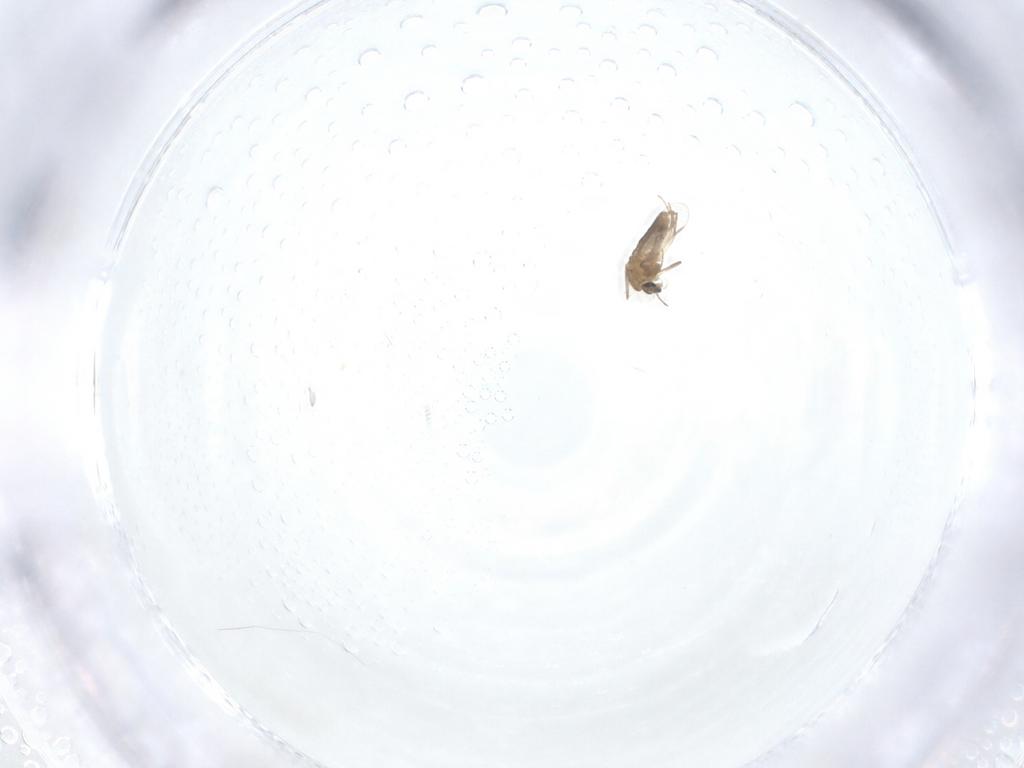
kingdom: Animalia
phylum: Arthropoda
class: Insecta
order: Diptera
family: Chironomidae
